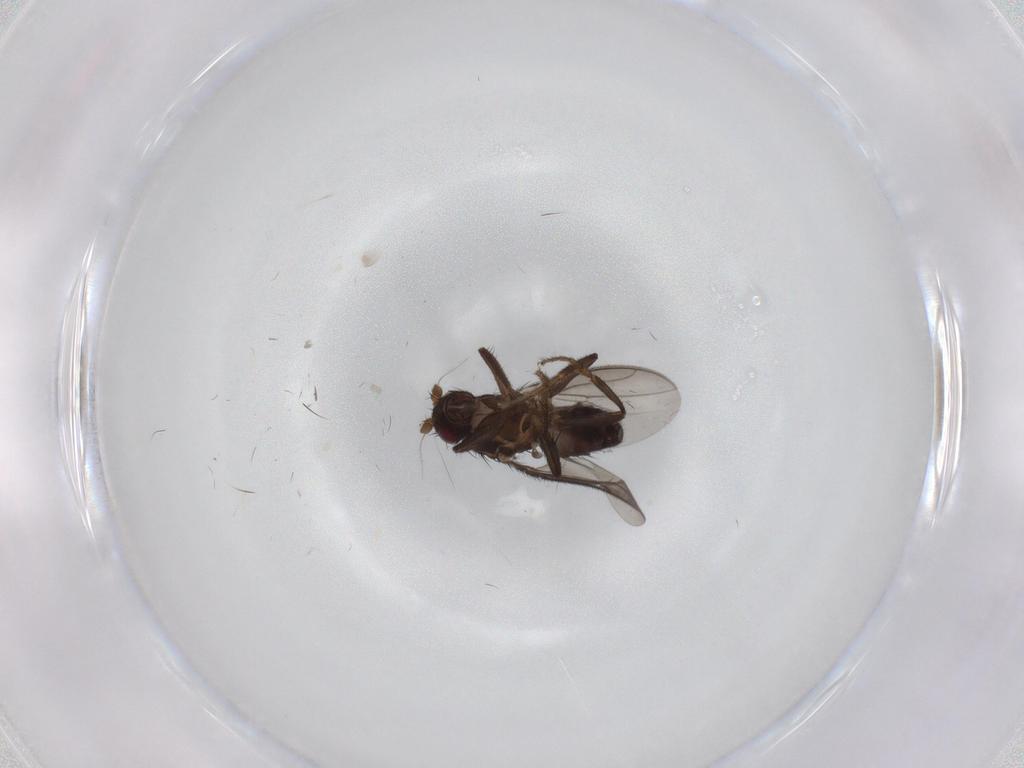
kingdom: Animalia
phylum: Arthropoda
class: Insecta
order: Diptera
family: Sphaeroceridae
